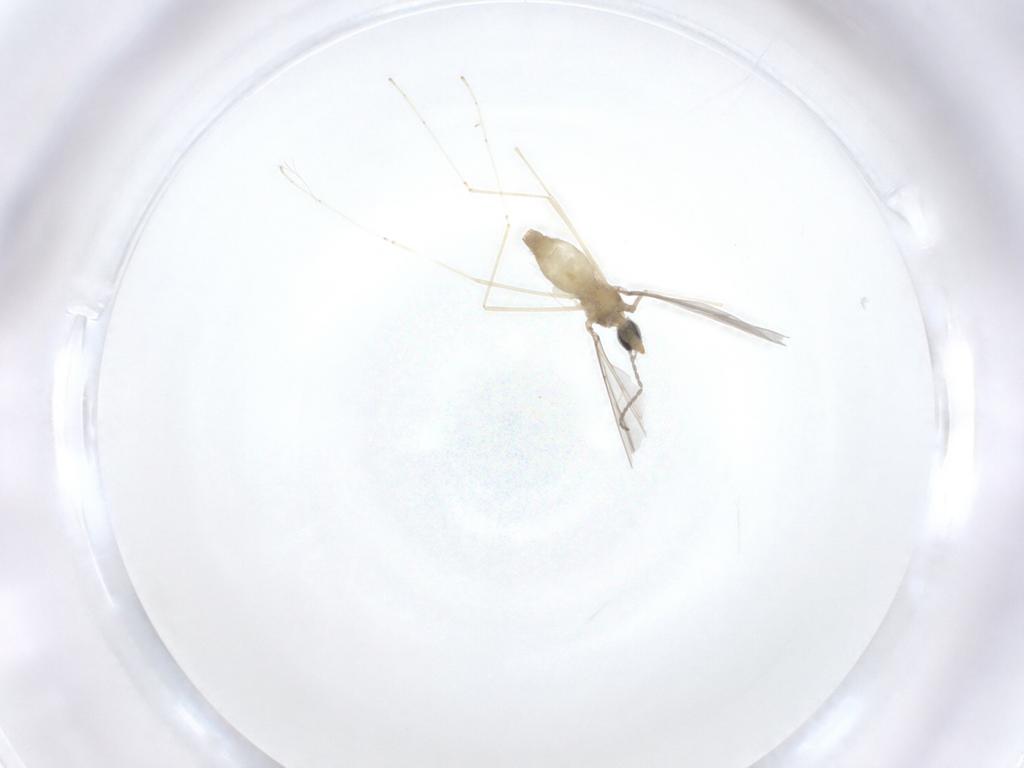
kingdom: Animalia
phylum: Arthropoda
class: Insecta
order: Diptera
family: Cecidomyiidae
